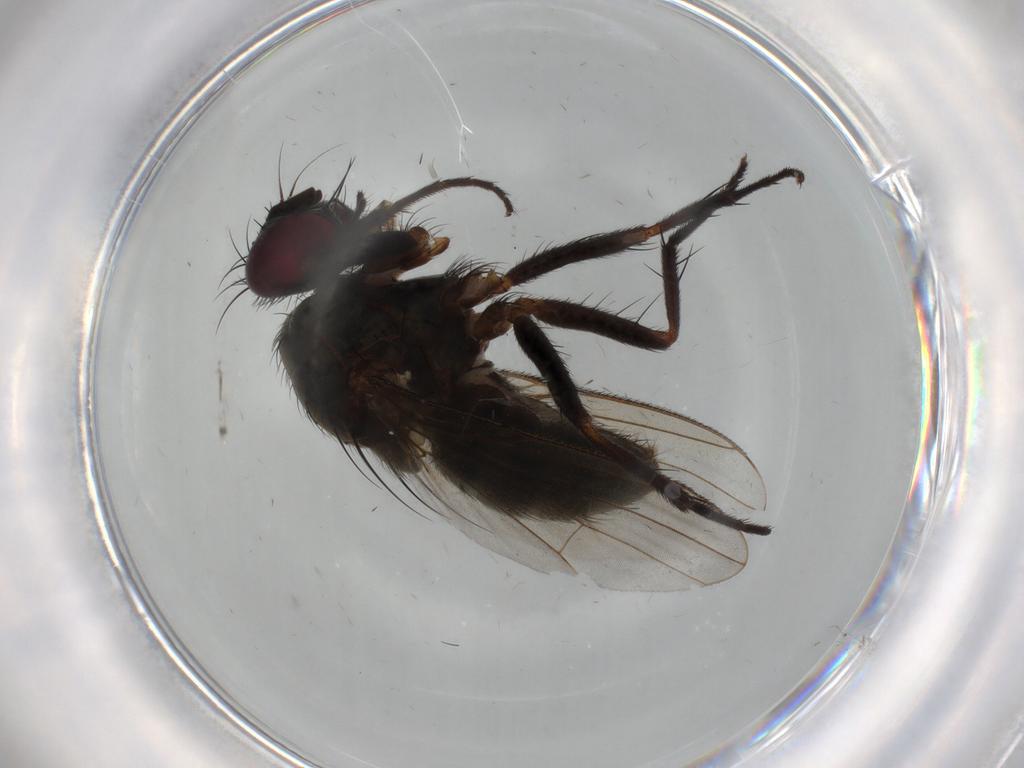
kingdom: Animalia
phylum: Arthropoda
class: Insecta
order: Diptera
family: Muscidae
